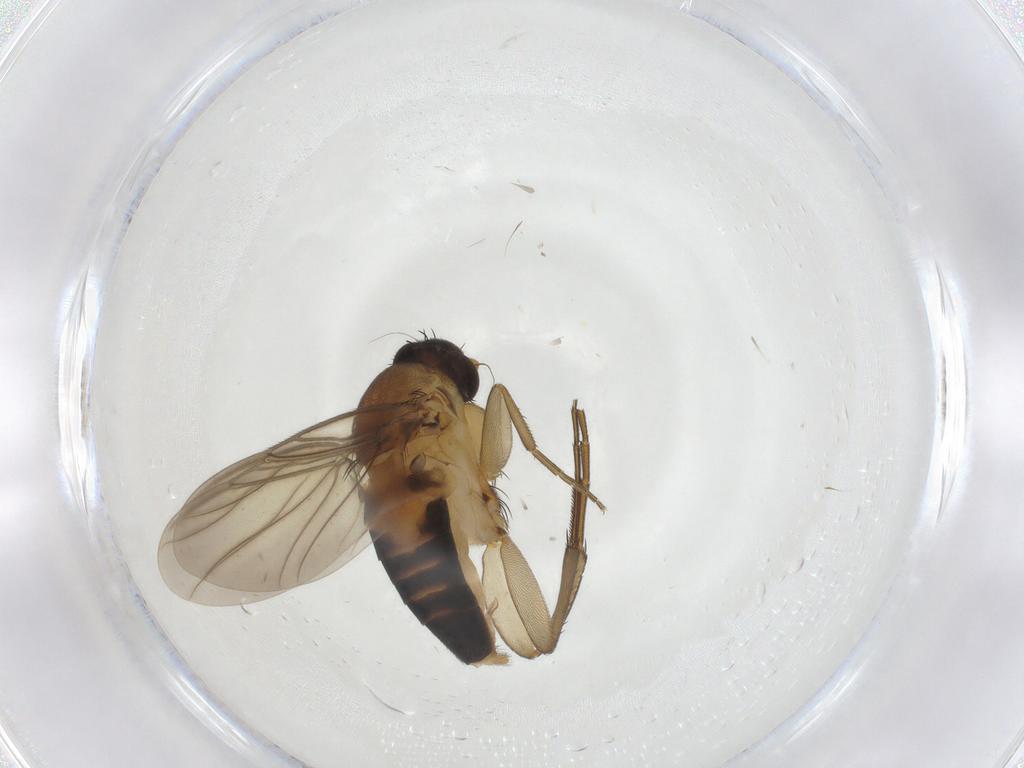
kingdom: Animalia
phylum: Arthropoda
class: Insecta
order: Diptera
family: Phoridae
